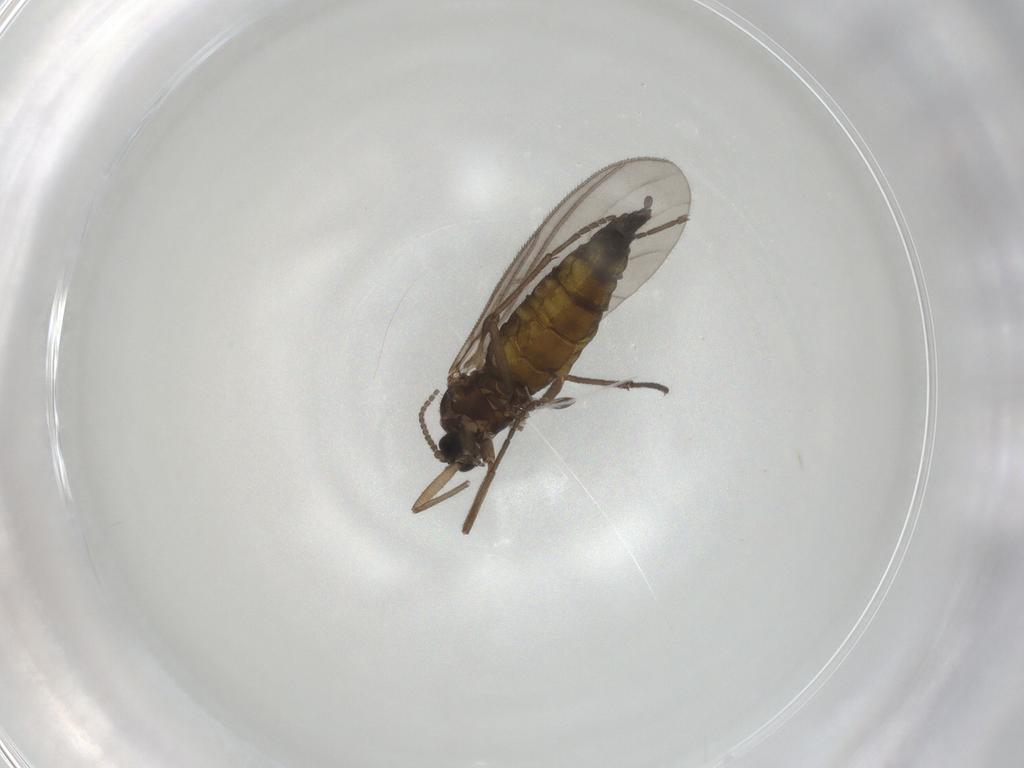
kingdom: Animalia
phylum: Arthropoda
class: Insecta
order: Diptera
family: Sciaridae
